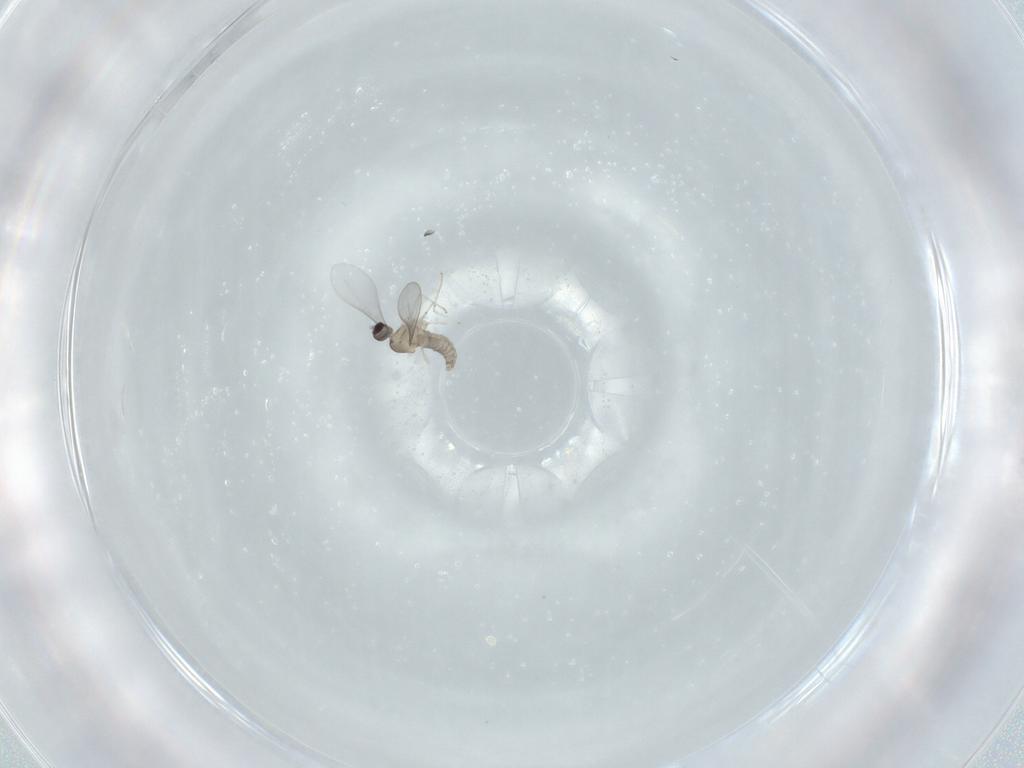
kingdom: Animalia
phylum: Arthropoda
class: Insecta
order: Diptera
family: Cecidomyiidae
